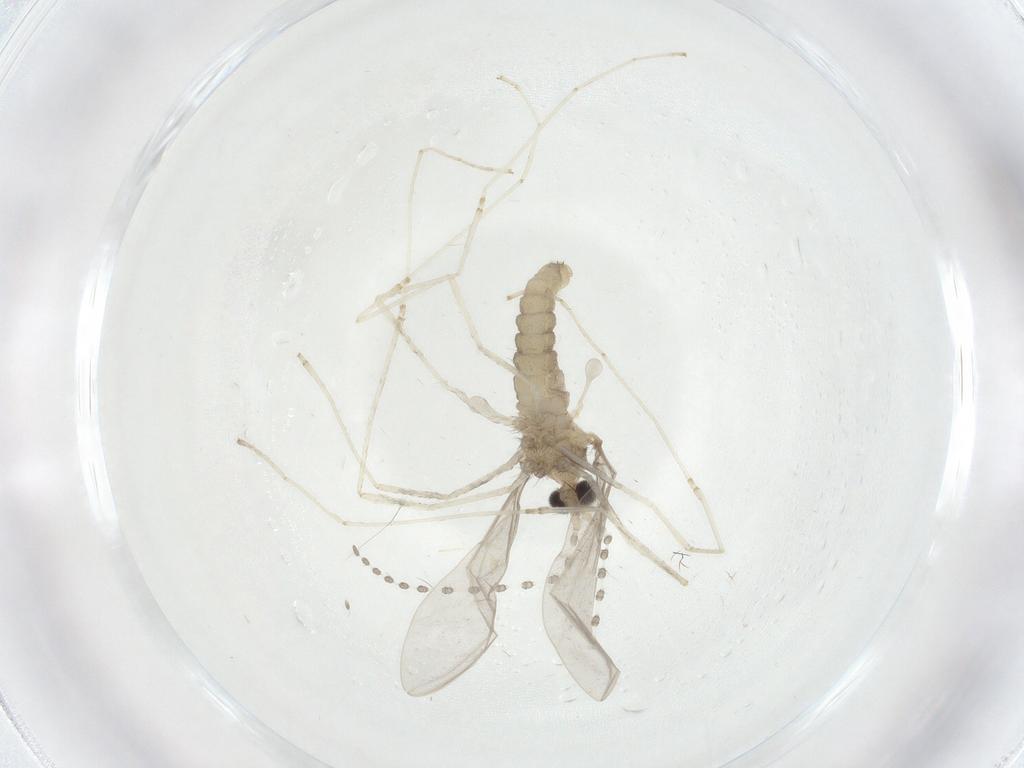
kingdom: Animalia
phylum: Arthropoda
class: Insecta
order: Diptera
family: Cecidomyiidae
